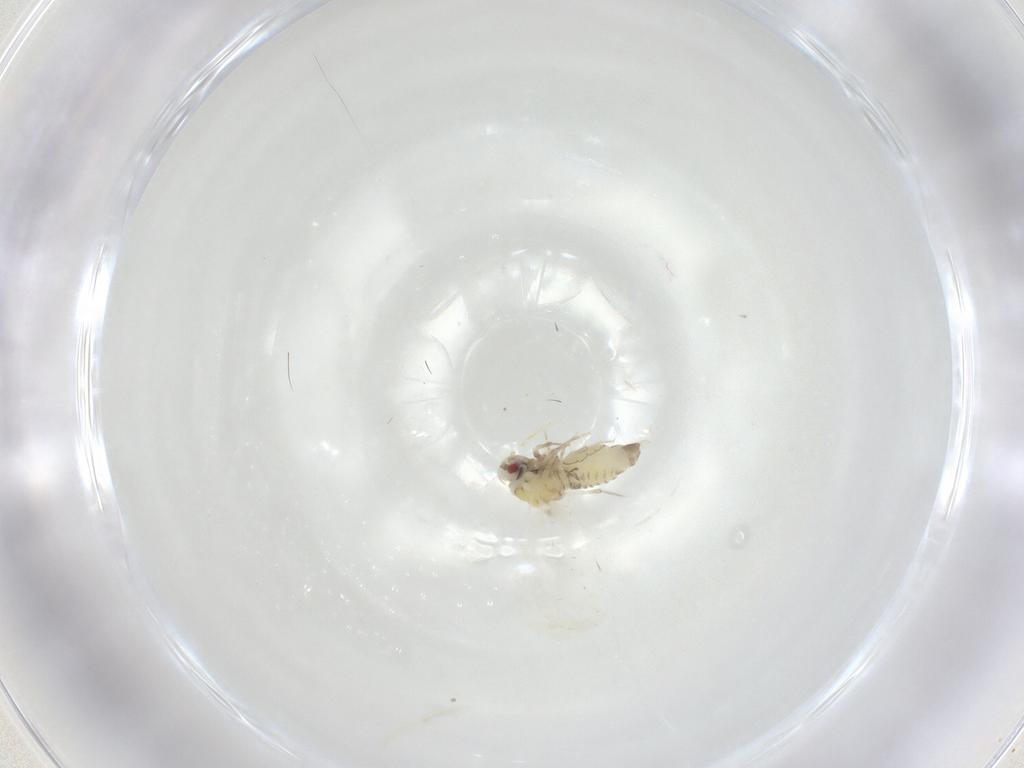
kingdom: Animalia
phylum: Arthropoda
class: Insecta
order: Hemiptera
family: Aleyrodidae
